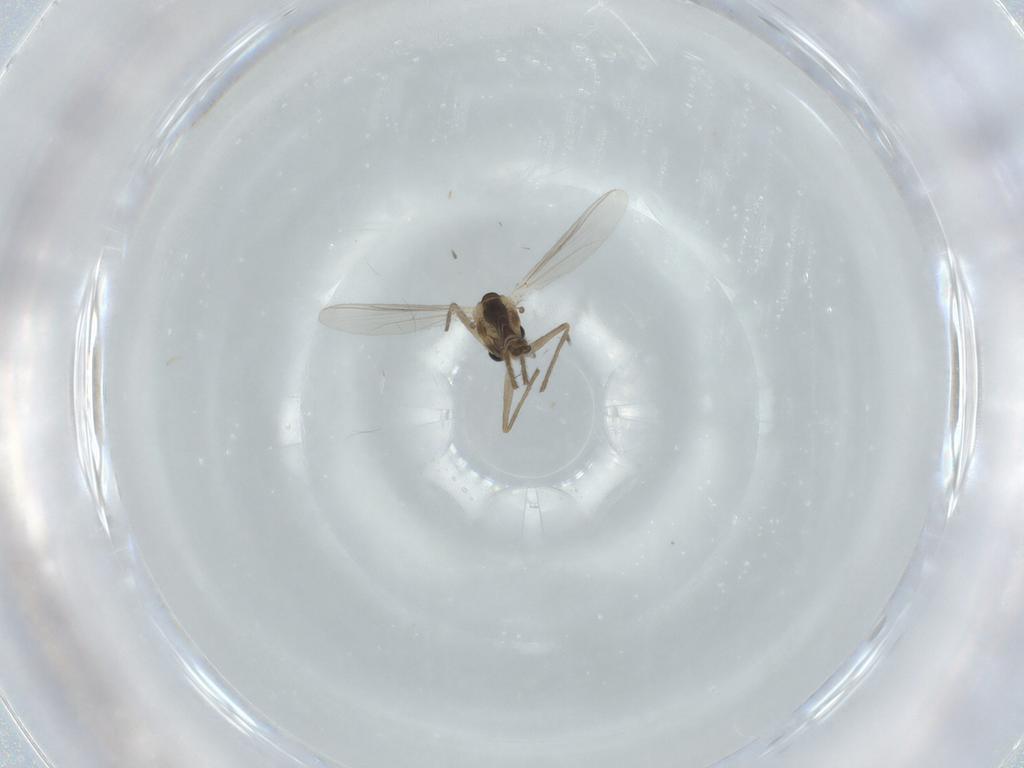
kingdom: Animalia
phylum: Arthropoda
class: Insecta
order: Diptera
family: Chironomidae
